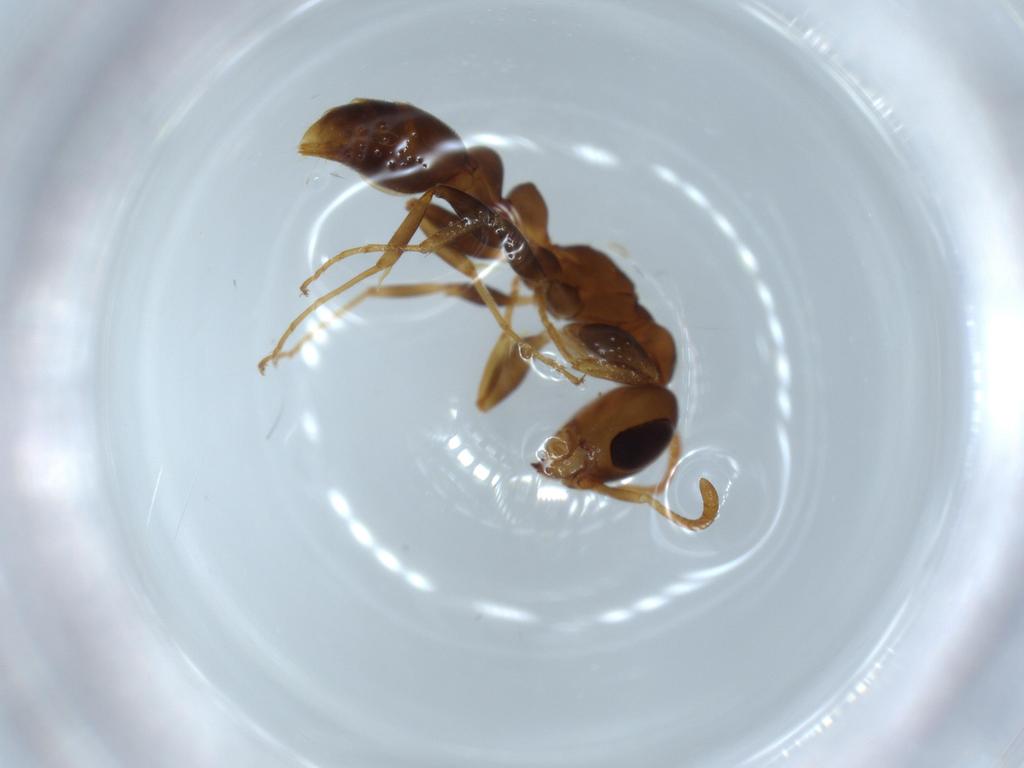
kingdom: Animalia
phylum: Arthropoda
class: Insecta
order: Hymenoptera
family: Formicidae
